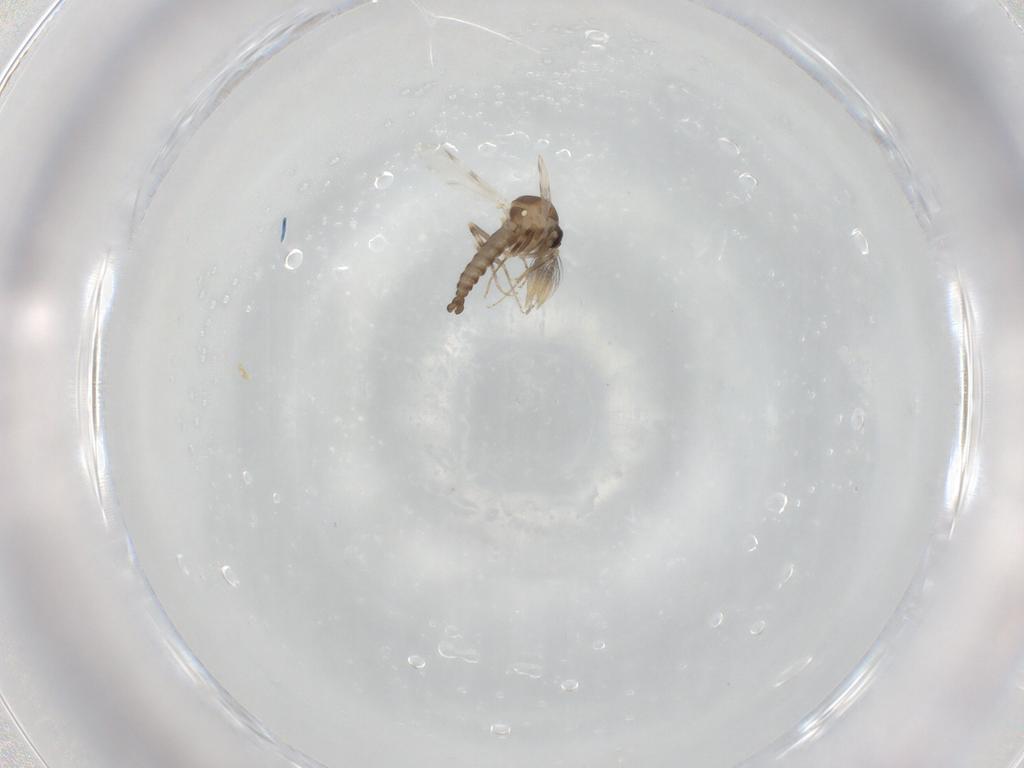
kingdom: Animalia
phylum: Arthropoda
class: Insecta
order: Diptera
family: Ceratopogonidae
